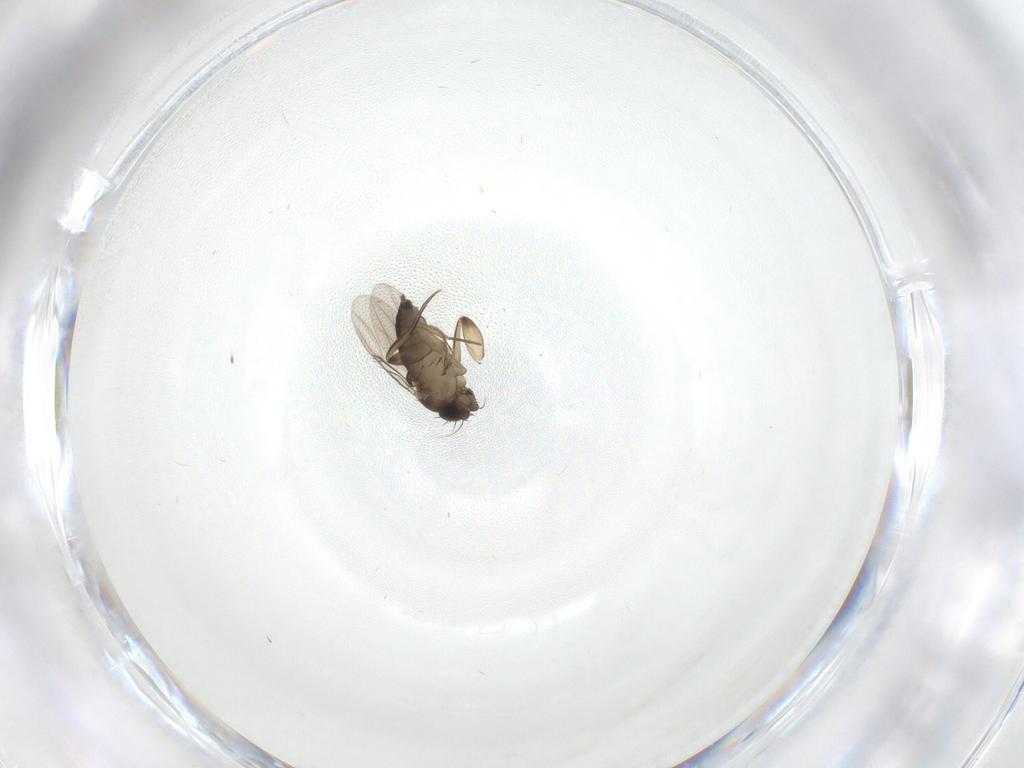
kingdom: Animalia
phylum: Arthropoda
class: Insecta
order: Diptera
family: Phoridae
